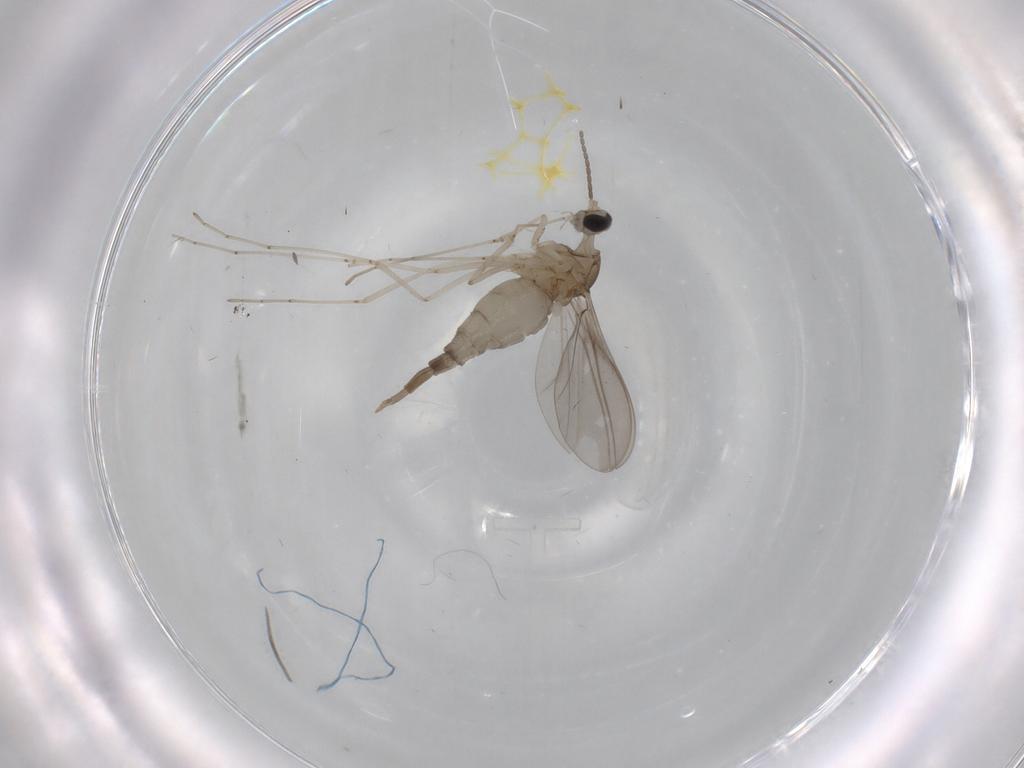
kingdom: Animalia
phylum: Arthropoda
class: Insecta
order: Diptera
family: Cecidomyiidae
